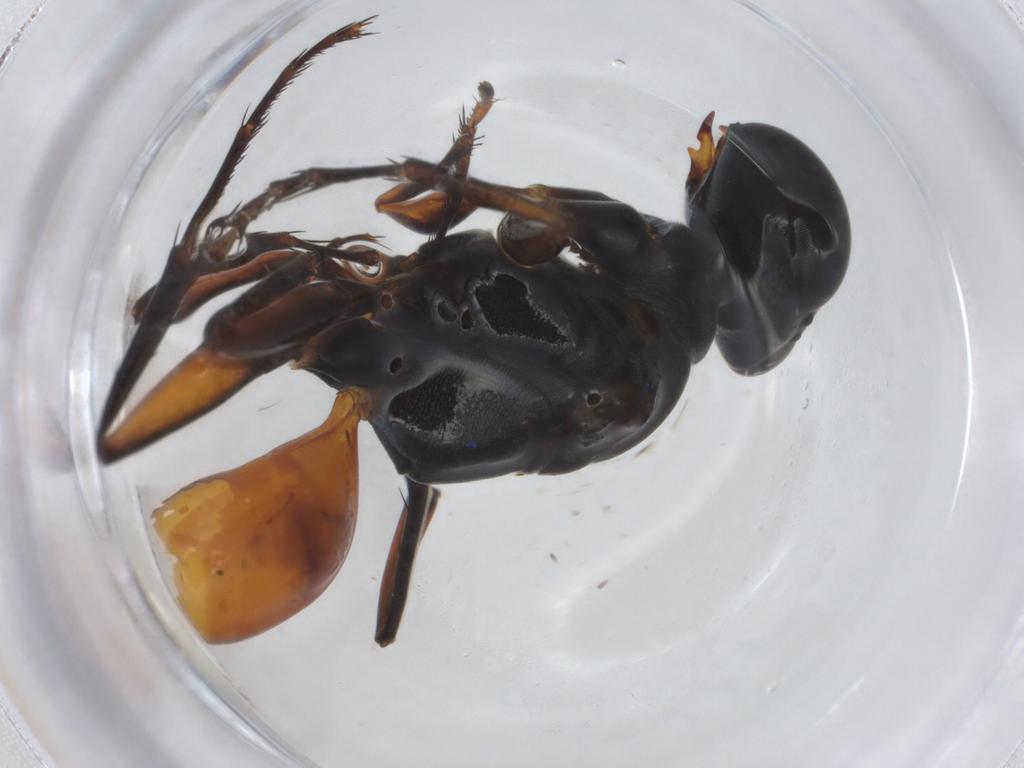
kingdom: Animalia
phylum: Arthropoda
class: Insecta
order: Hymenoptera
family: Crabronidae
